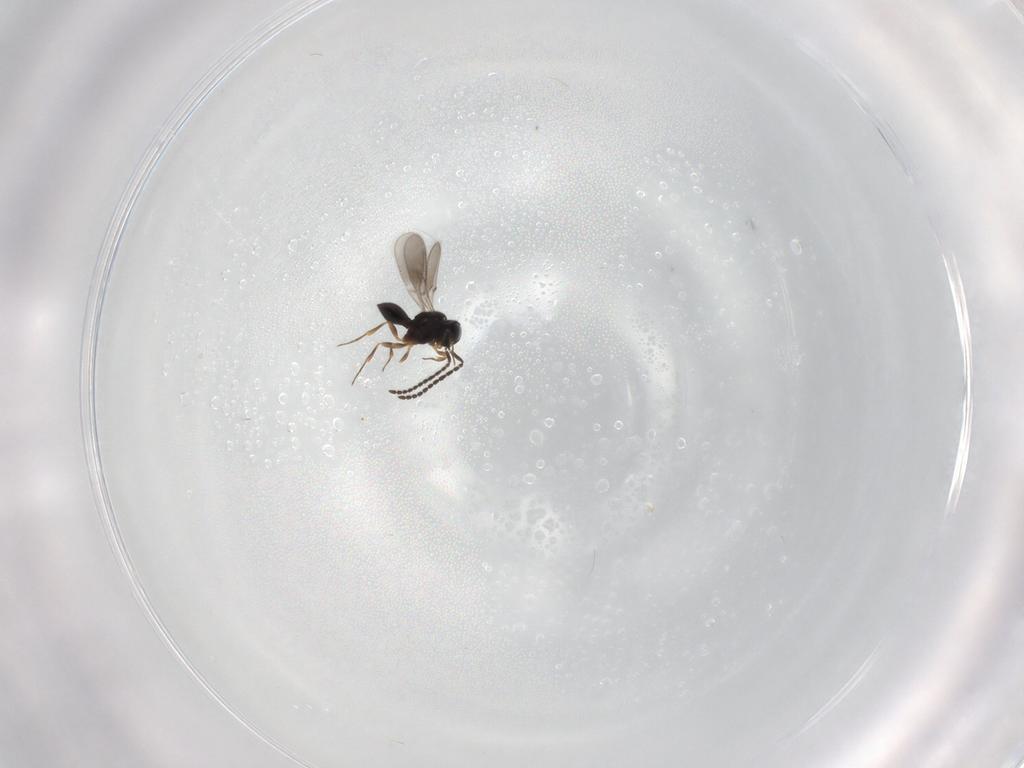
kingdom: Animalia
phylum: Arthropoda
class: Insecta
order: Hymenoptera
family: Scelionidae
